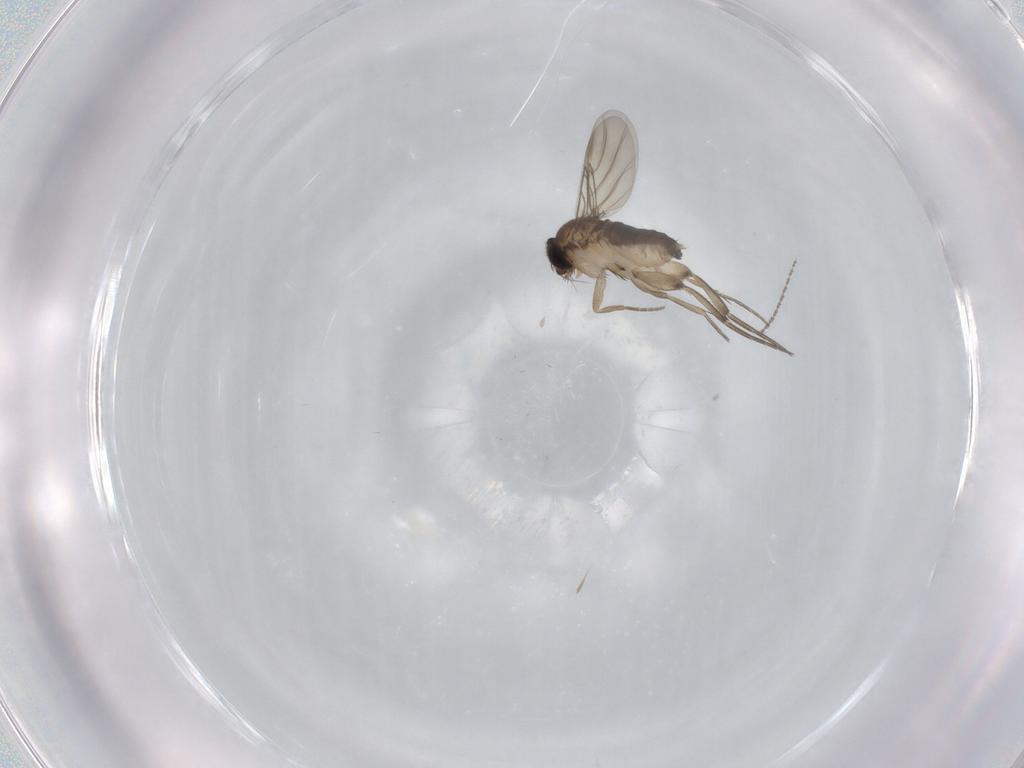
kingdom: Animalia
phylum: Arthropoda
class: Insecta
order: Diptera
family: Phoridae
